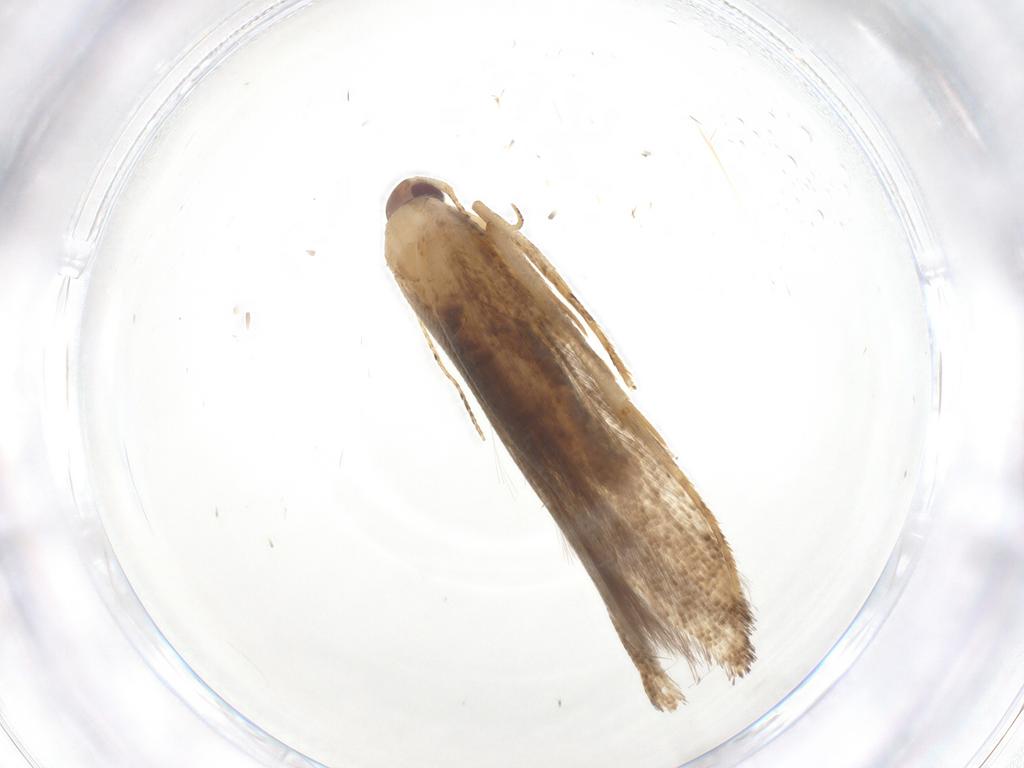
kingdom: Animalia
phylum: Arthropoda
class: Insecta
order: Lepidoptera
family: Momphidae
